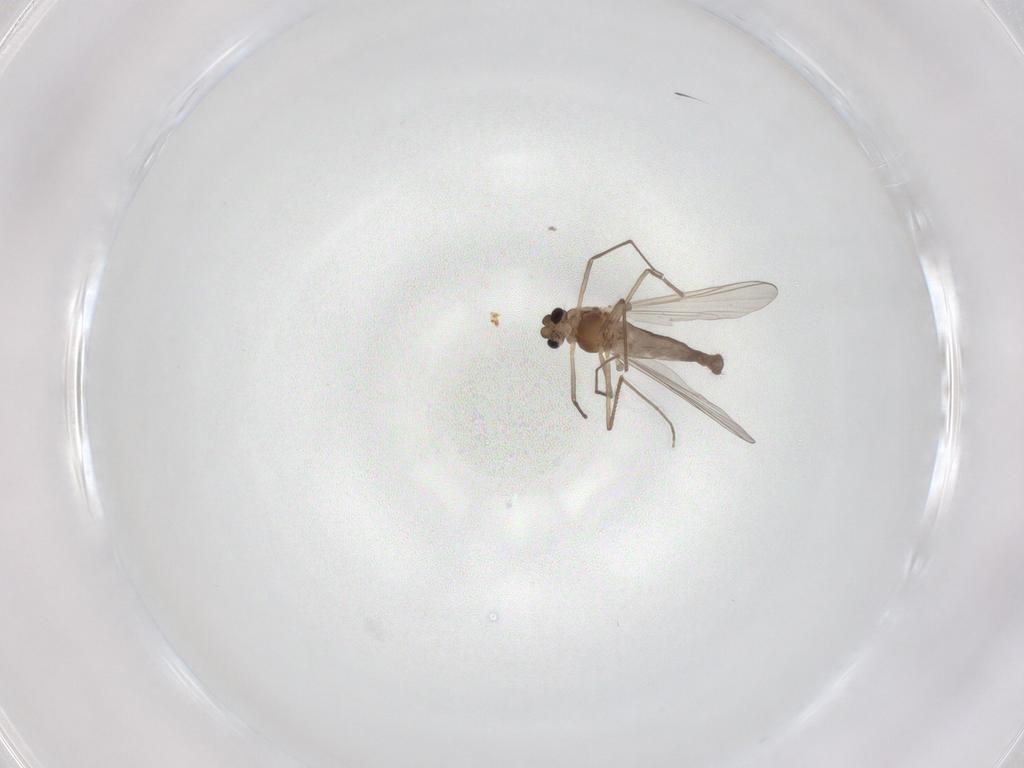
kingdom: Animalia
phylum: Arthropoda
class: Insecta
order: Diptera
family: Chironomidae
